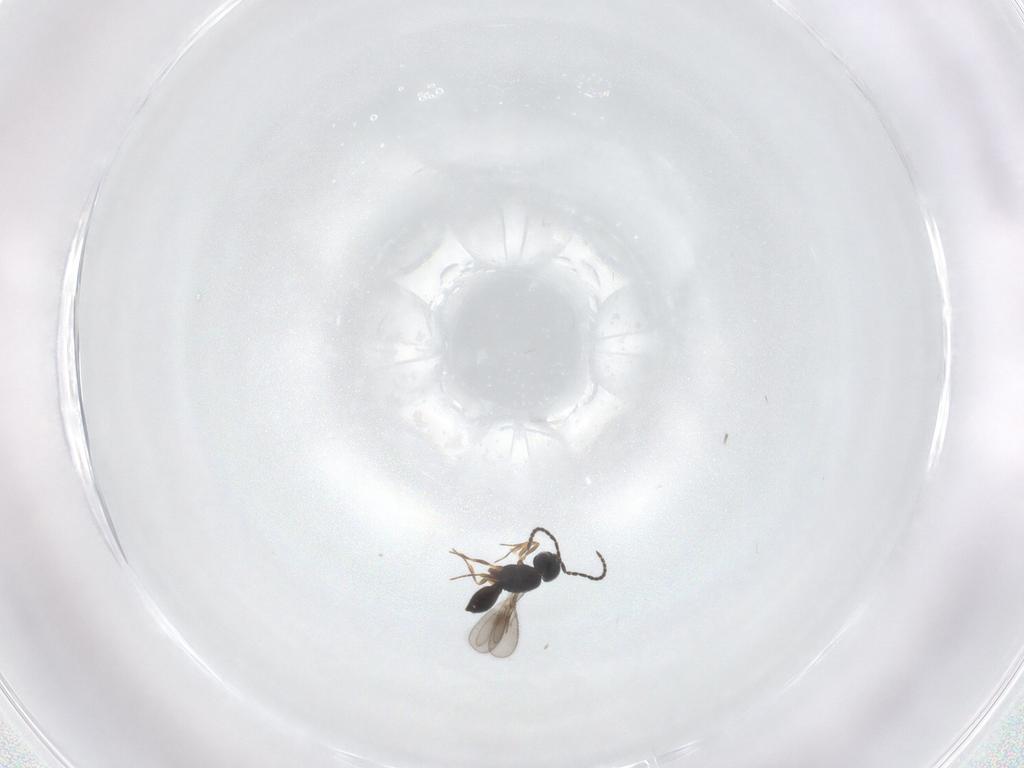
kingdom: Animalia
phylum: Arthropoda
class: Insecta
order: Hymenoptera
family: Scelionidae
